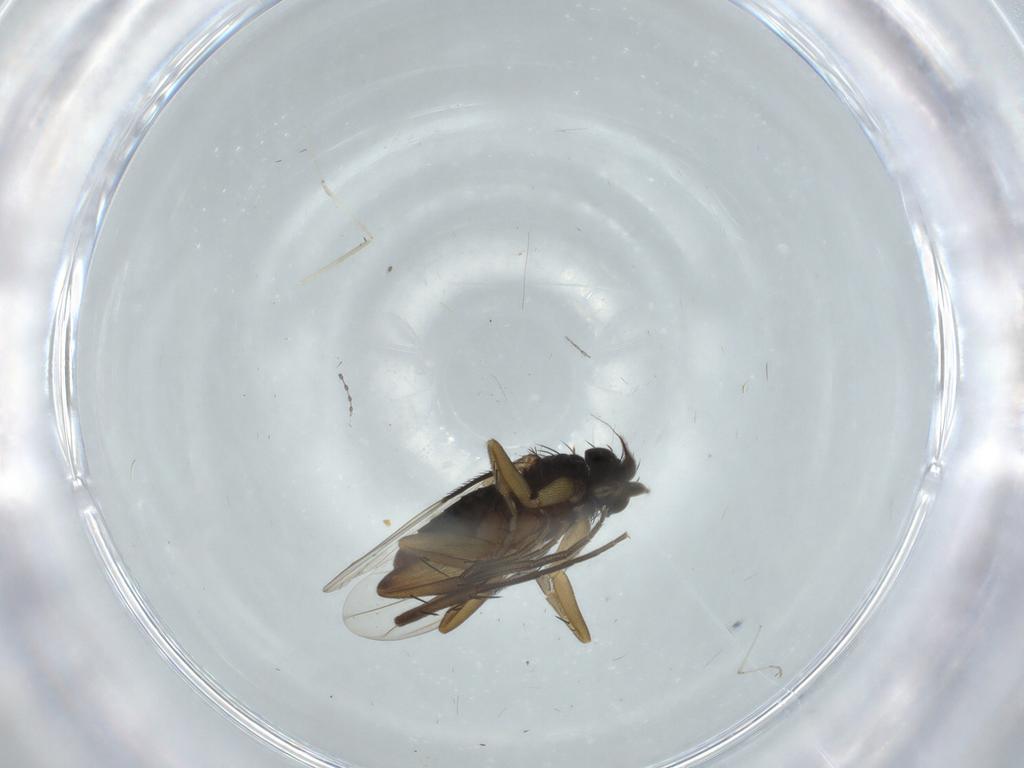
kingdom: Animalia
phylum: Arthropoda
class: Insecta
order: Diptera
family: Phoridae
